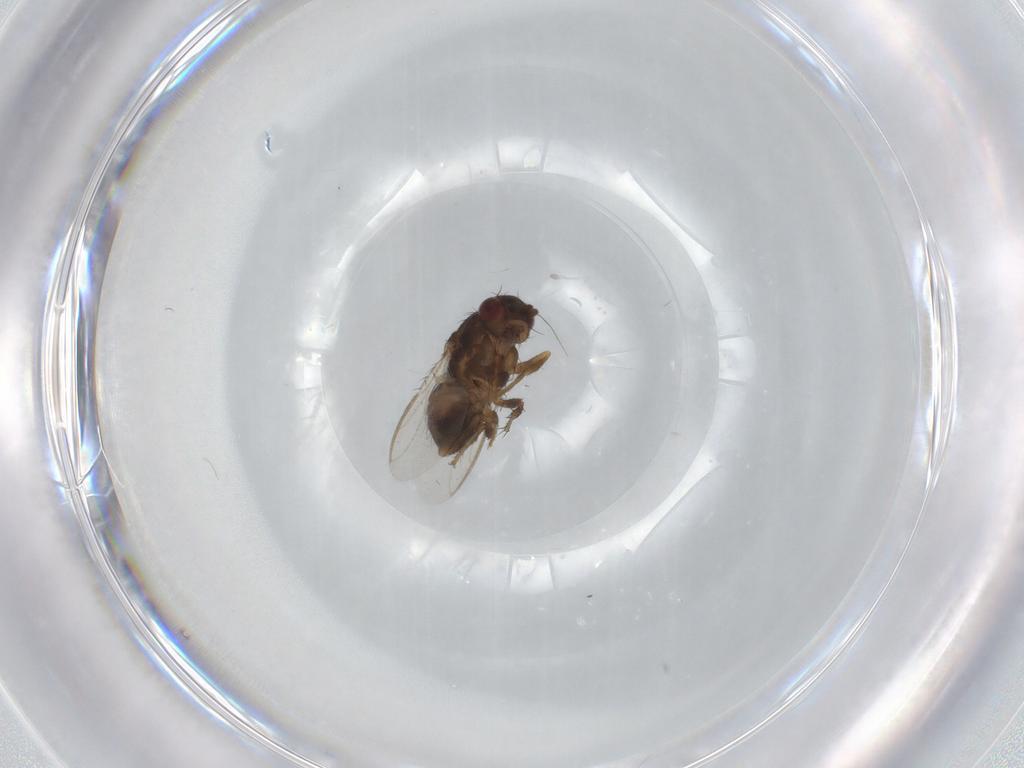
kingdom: Animalia
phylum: Arthropoda
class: Insecta
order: Diptera
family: Sphaeroceridae
